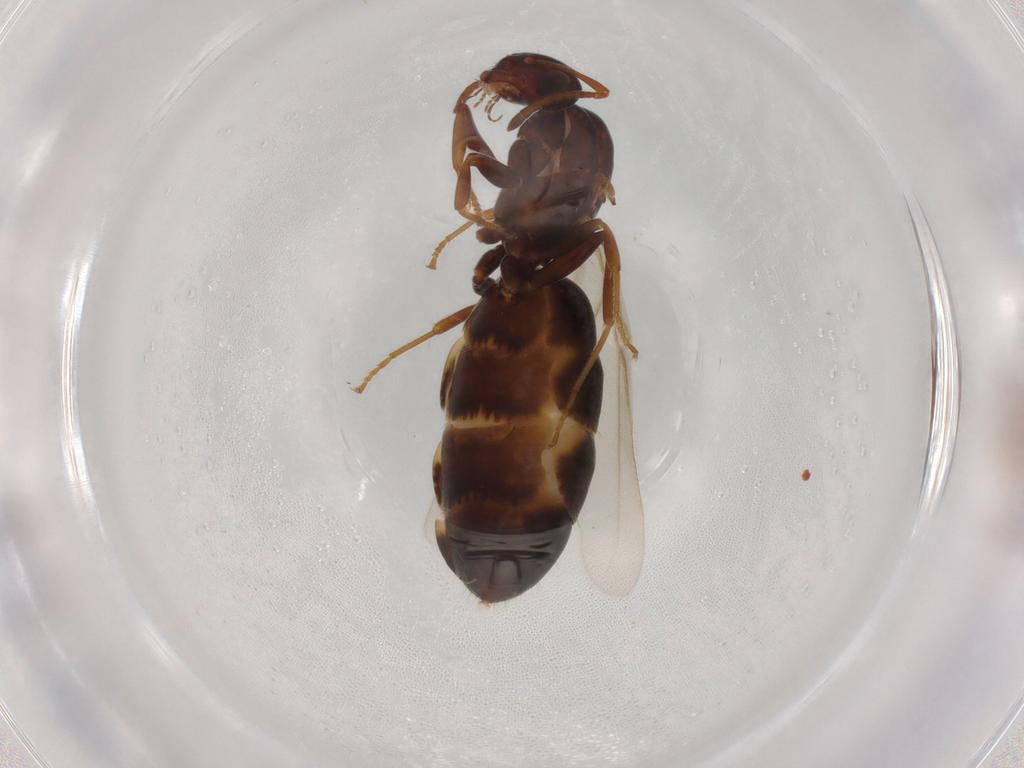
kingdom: Animalia
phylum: Arthropoda
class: Insecta
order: Hymenoptera
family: Formicidae
